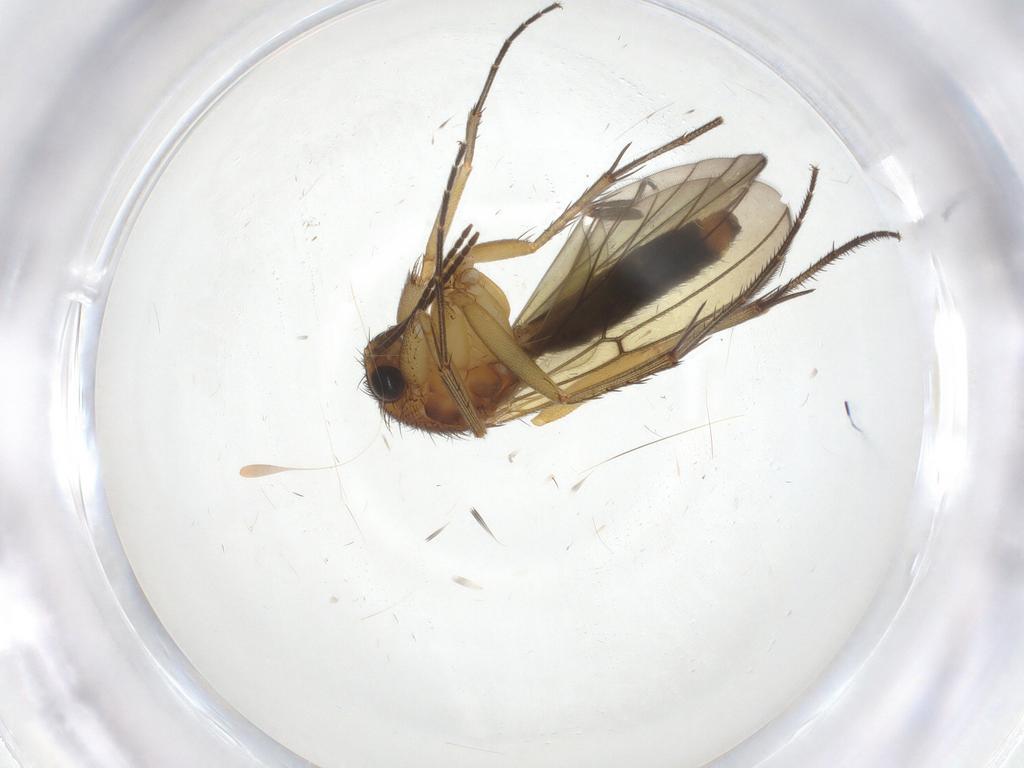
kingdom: Animalia
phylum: Arthropoda
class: Insecta
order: Diptera
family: Mycetophilidae
